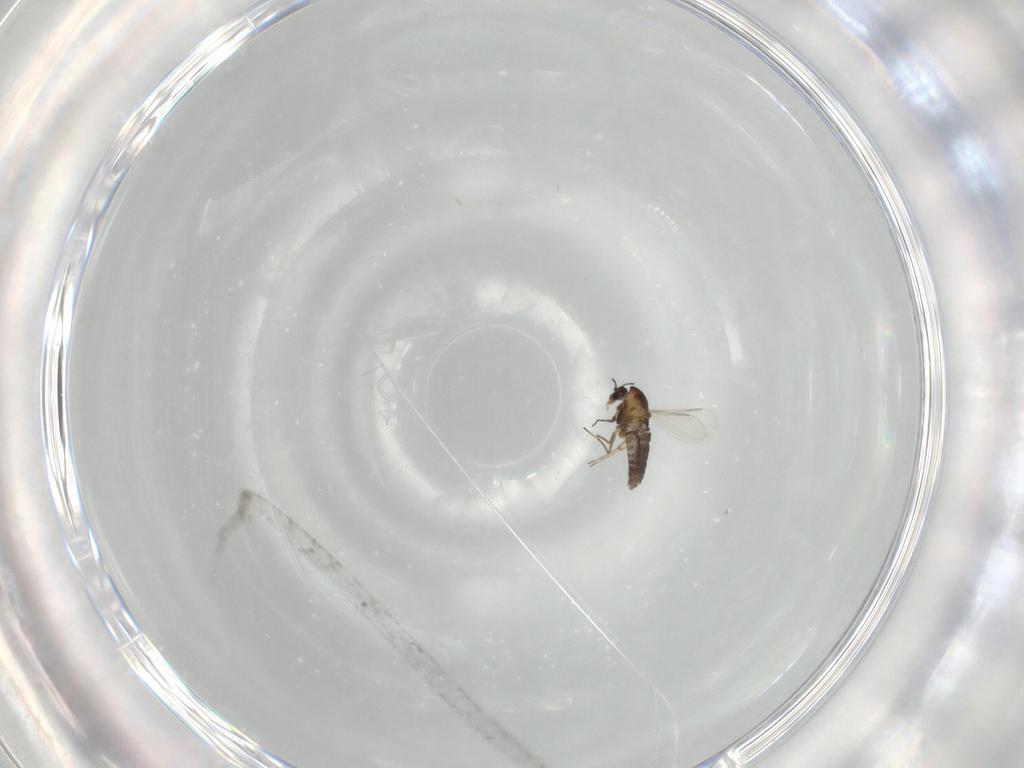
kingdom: Animalia
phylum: Arthropoda
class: Insecta
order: Diptera
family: Chironomidae
